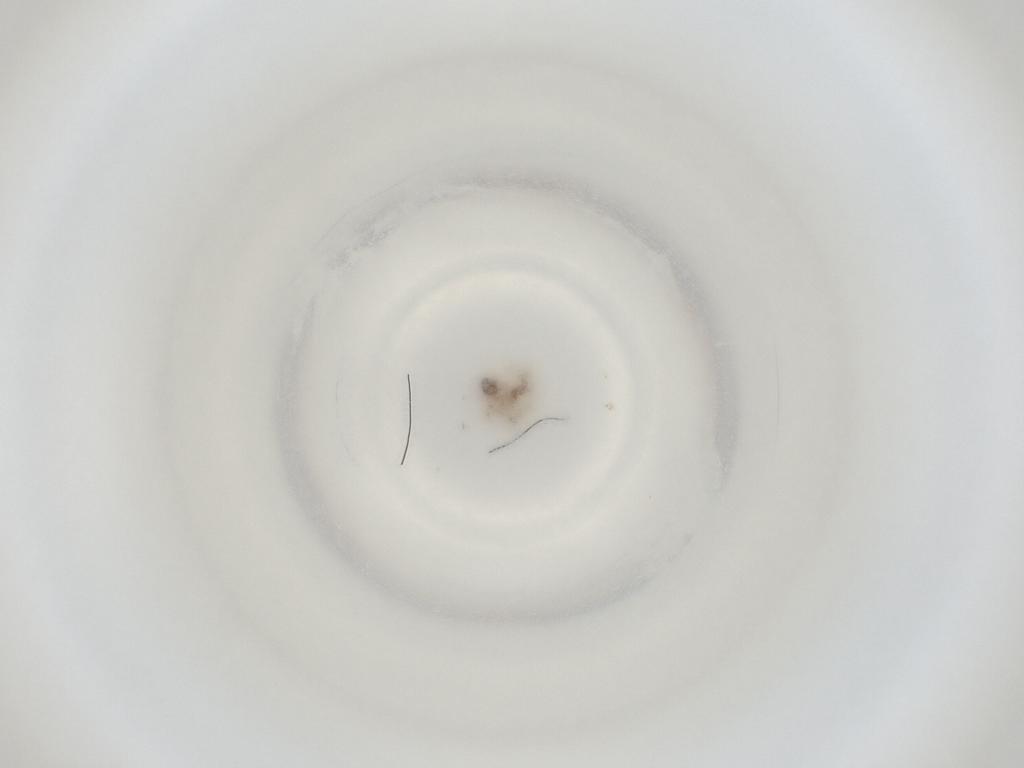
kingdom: Animalia
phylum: Arthropoda
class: Insecta
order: Diptera
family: Cecidomyiidae
